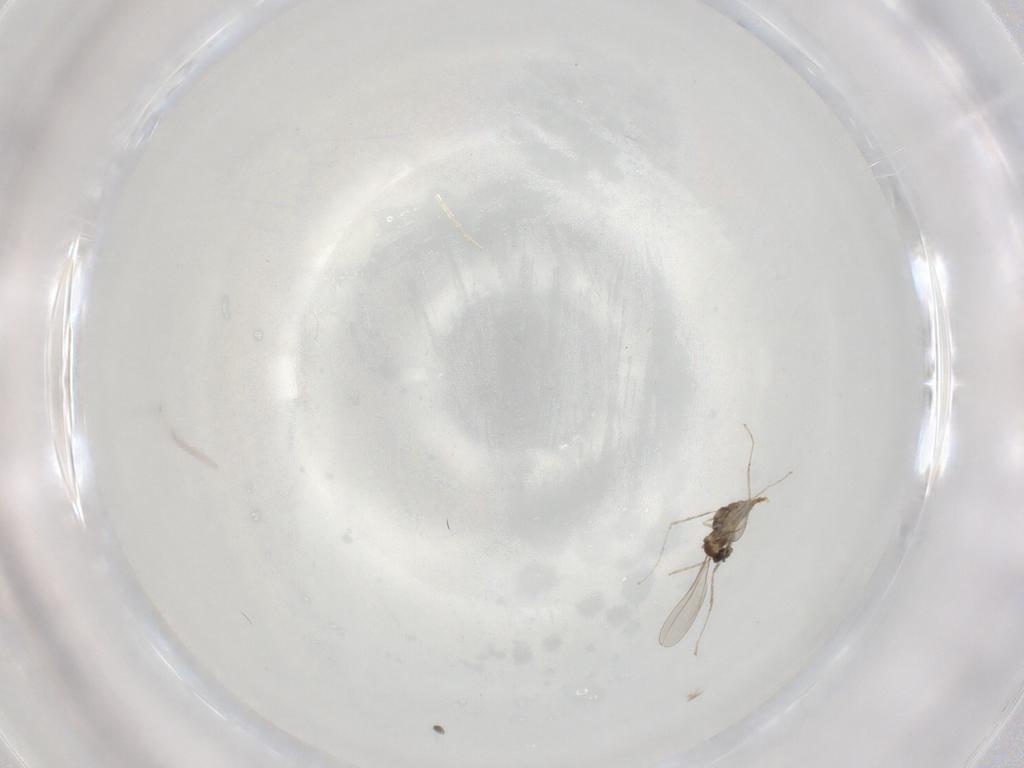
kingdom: Animalia
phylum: Arthropoda
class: Insecta
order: Diptera
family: Cecidomyiidae
